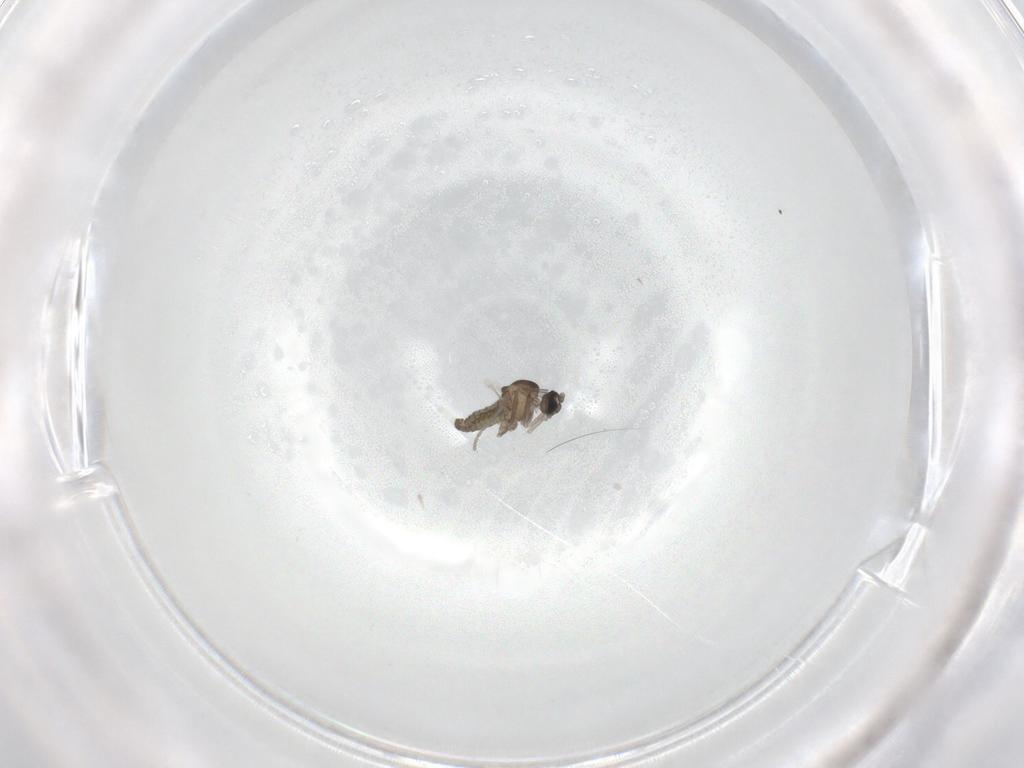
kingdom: Animalia
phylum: Arthropoda
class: Insecta
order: Diptera
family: Cecidomyiidae
